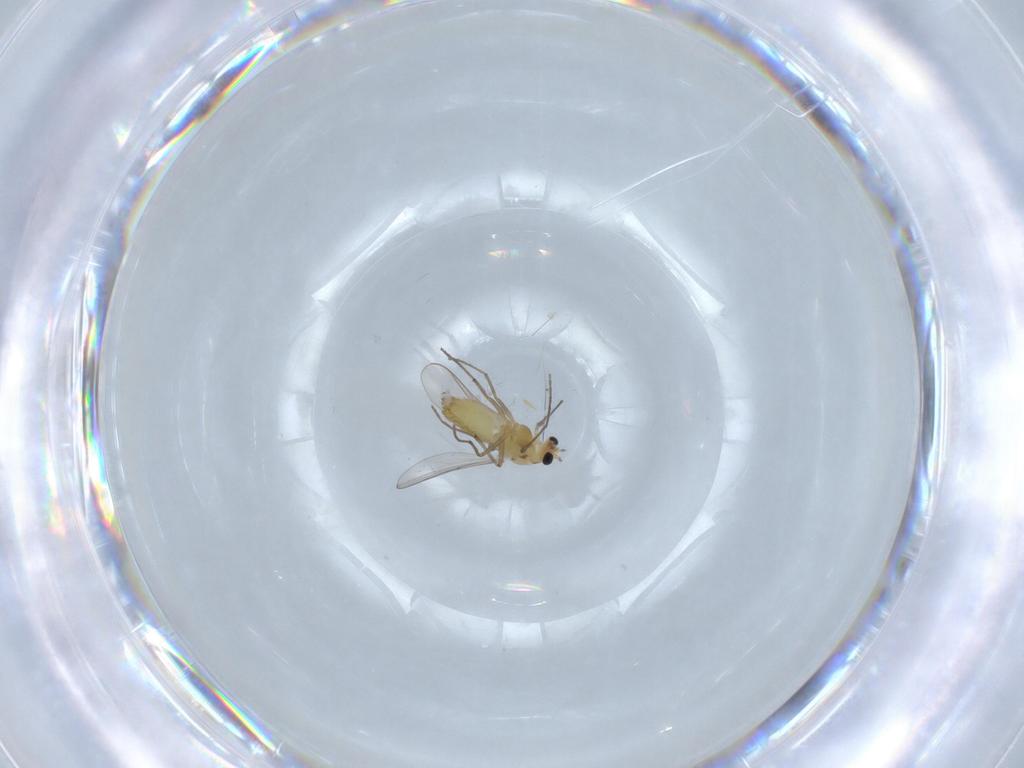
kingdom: Animalia
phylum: Arthropoda
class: Insecta
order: Diptera
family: Chironomidae
